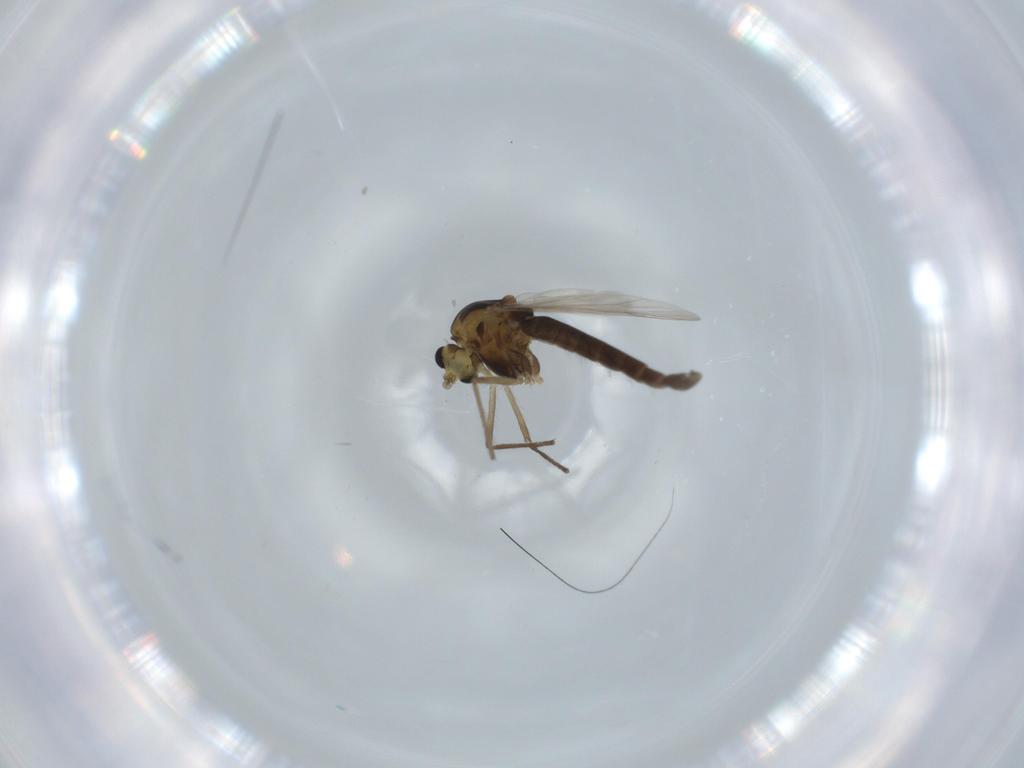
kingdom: Animalia
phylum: Arthropoda
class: Insecta
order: Diptera
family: Chironomidae
